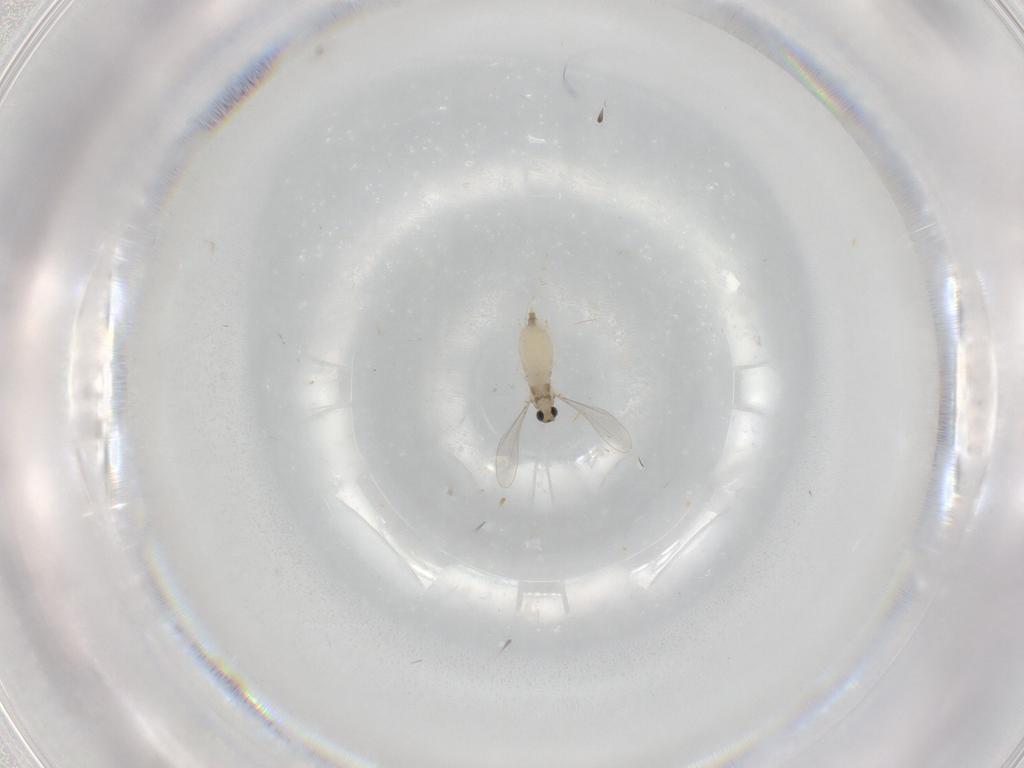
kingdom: Animalia
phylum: Arthropoda
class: Insecta
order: Diptera
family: Cecidomyiidae
